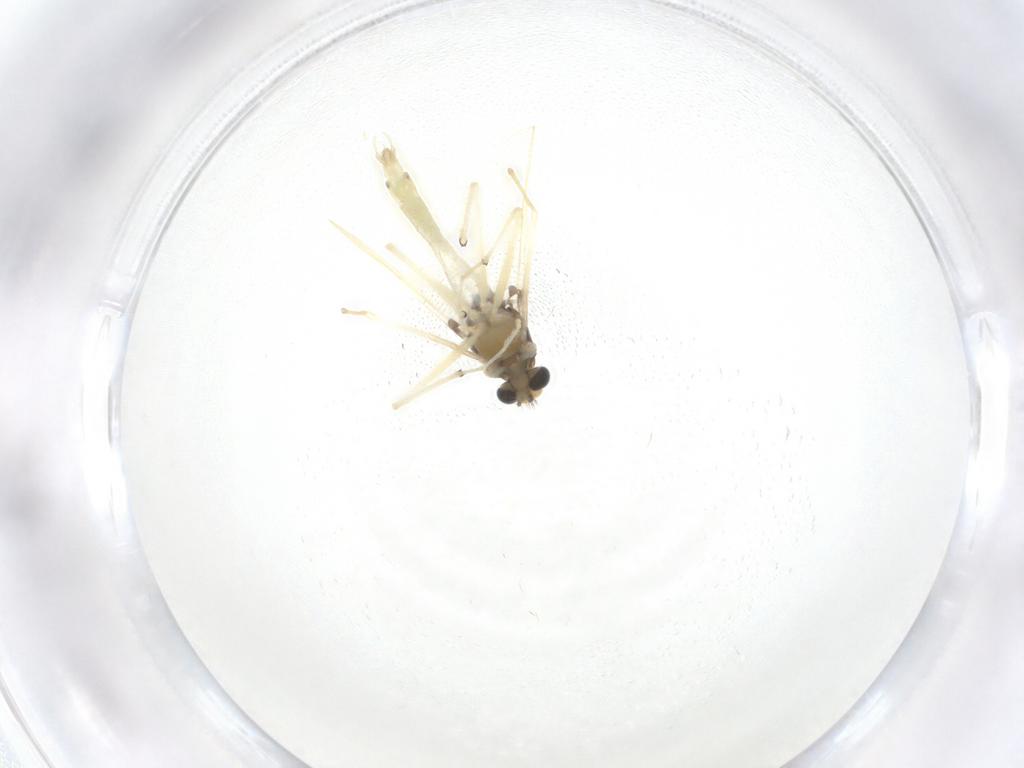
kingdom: Animalia
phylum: Arthropoda
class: Insecta
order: Diptera
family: Chironomidae
